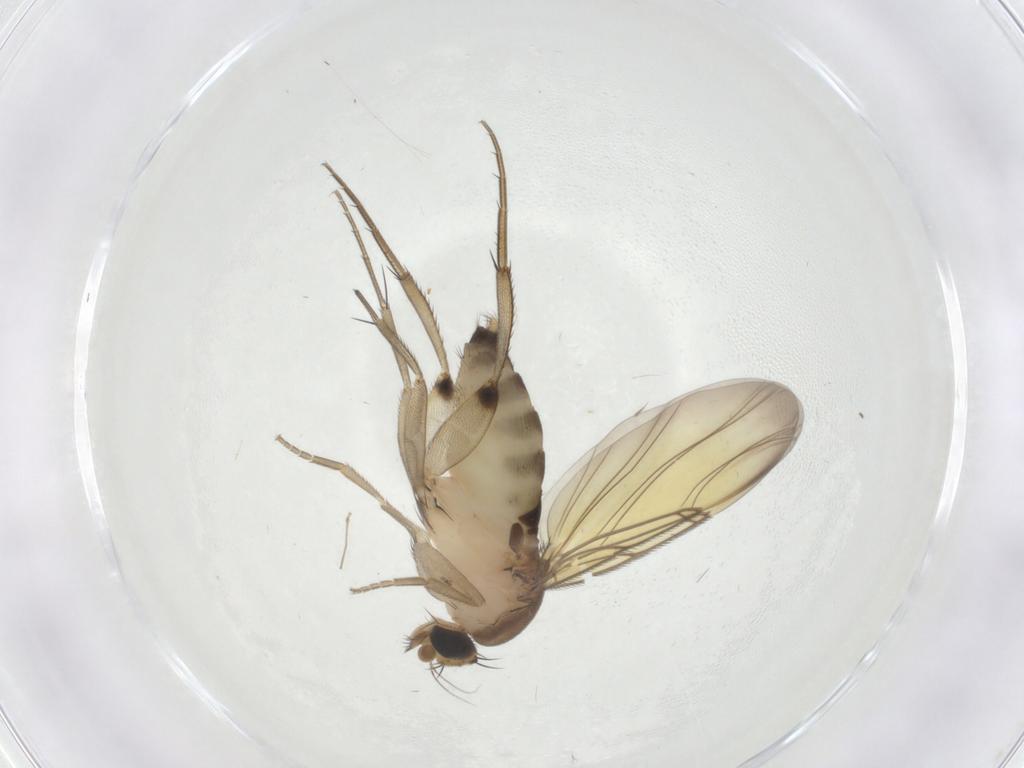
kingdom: Animalia
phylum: Arthropoda
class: Insecta
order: Diptera
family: Phoridae
